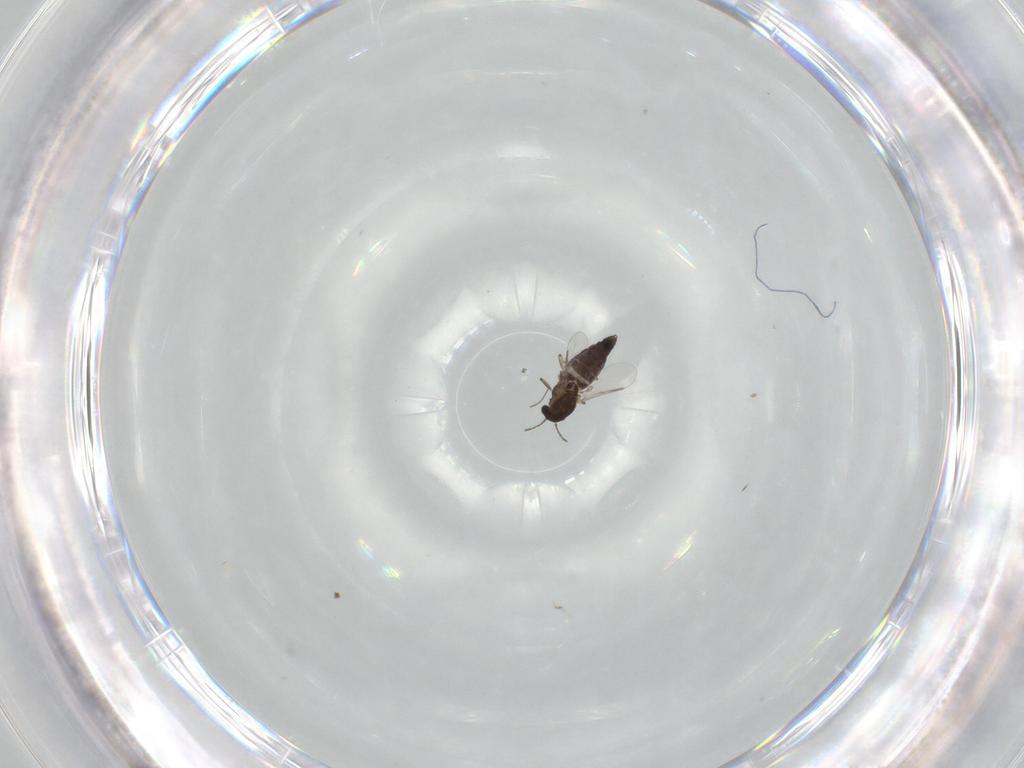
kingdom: Animalia
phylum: Arthropoda
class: Insecta
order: Diptera
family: Chironomidae
